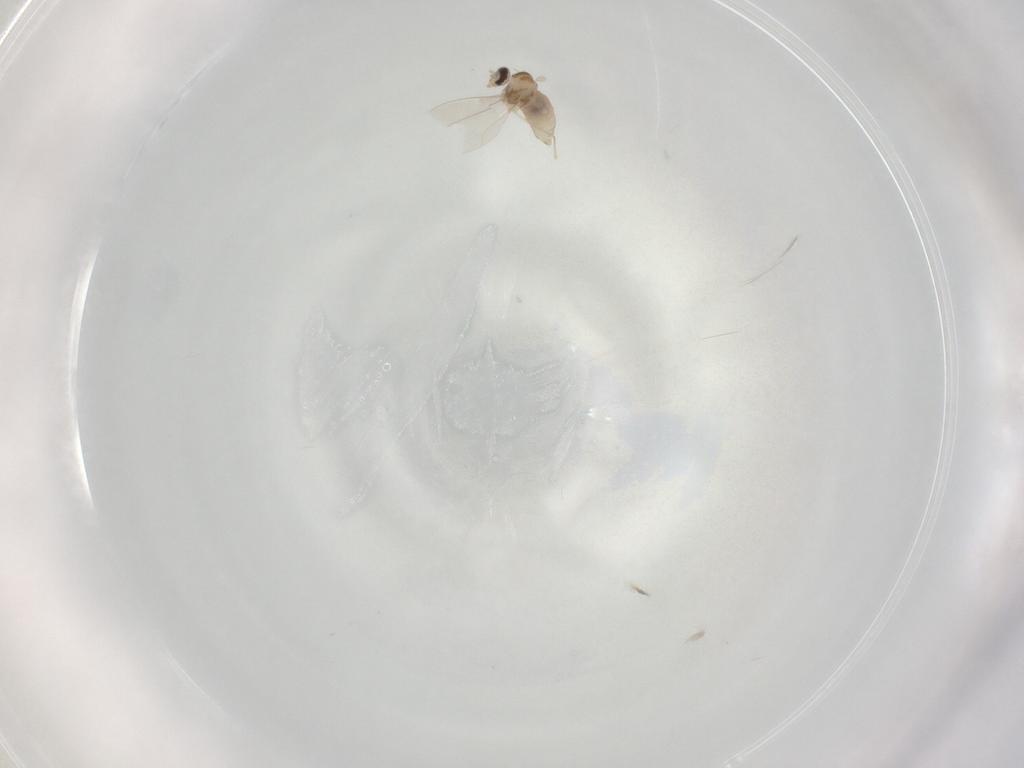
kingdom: Animalia
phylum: Arthropoda
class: Insecta
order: Diptera
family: Cecidomyiidae
